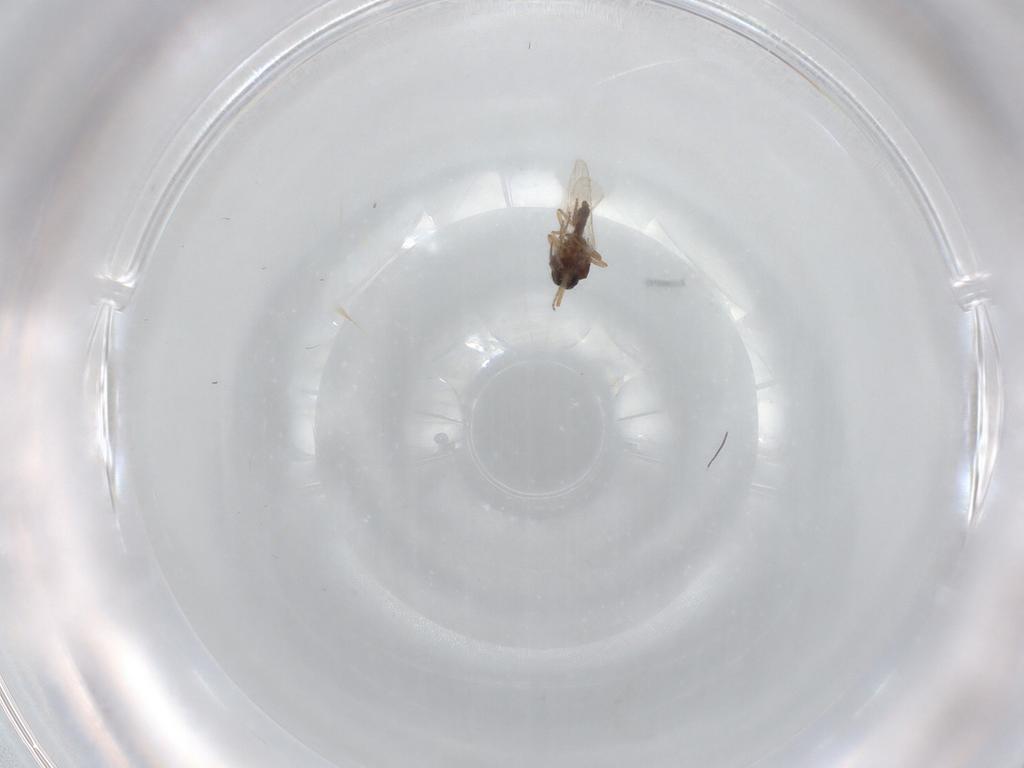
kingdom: Animalia
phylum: Arthropoda
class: Insecta
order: Diptera
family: Ceratopogonidae
